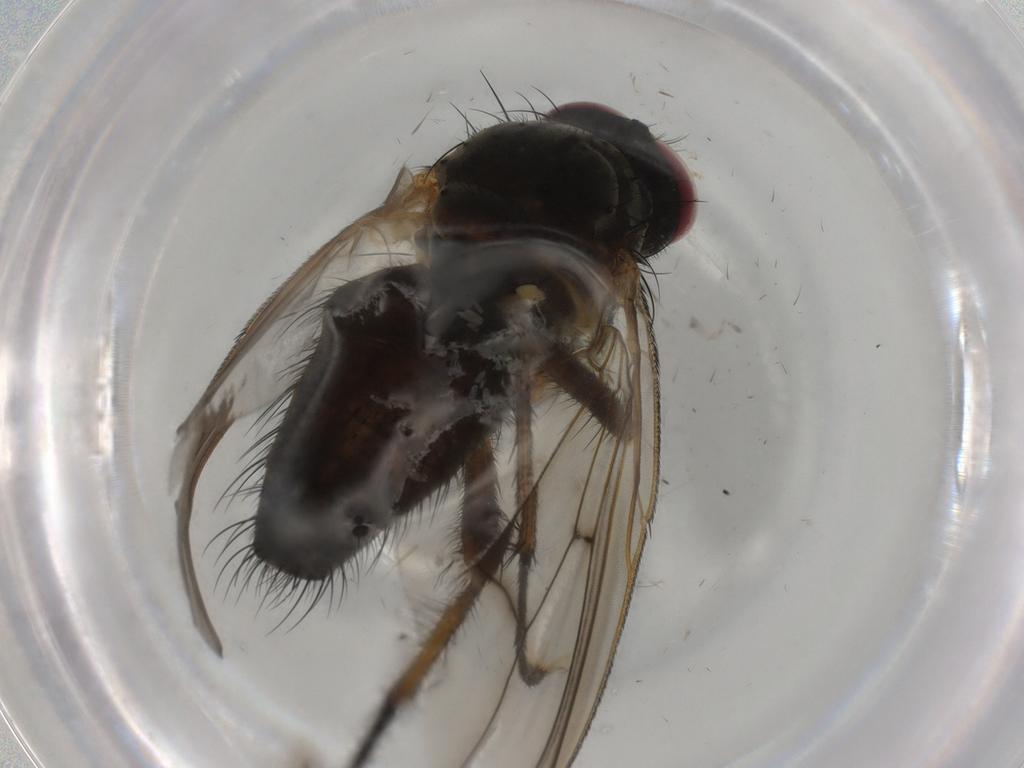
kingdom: Animalia
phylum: Arthropoda
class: Insecta
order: Diptera
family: Muscidae
